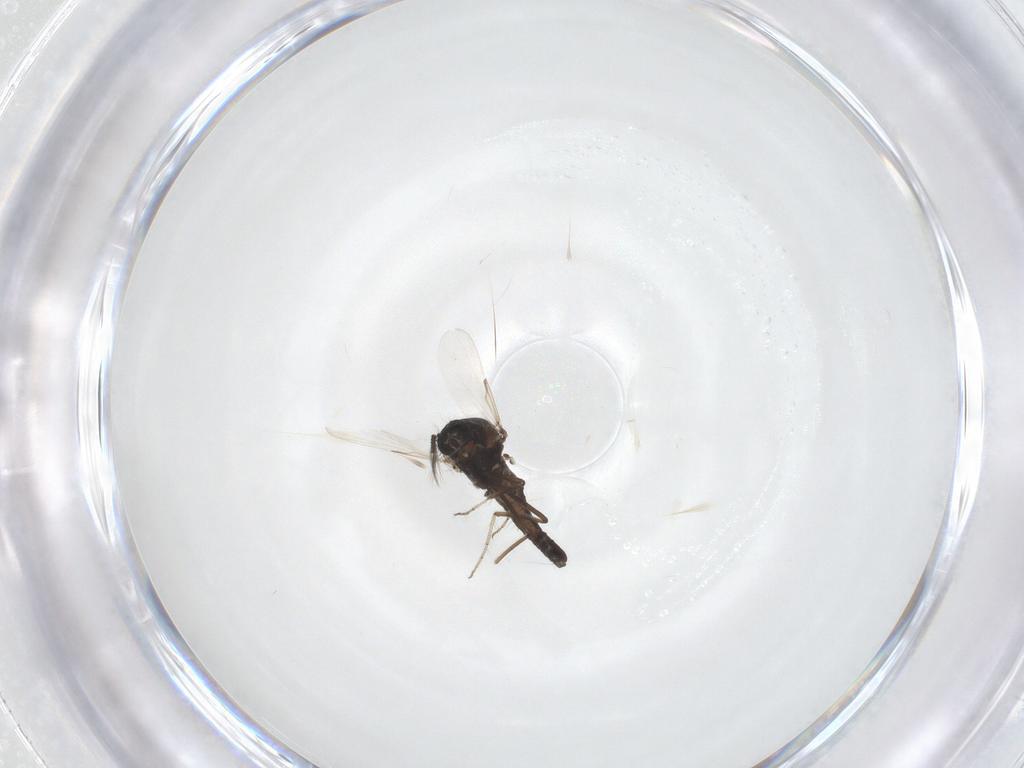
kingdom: Animalia
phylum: Arthropoda
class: Insecta
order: Diptera
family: Ceratopogonidae
